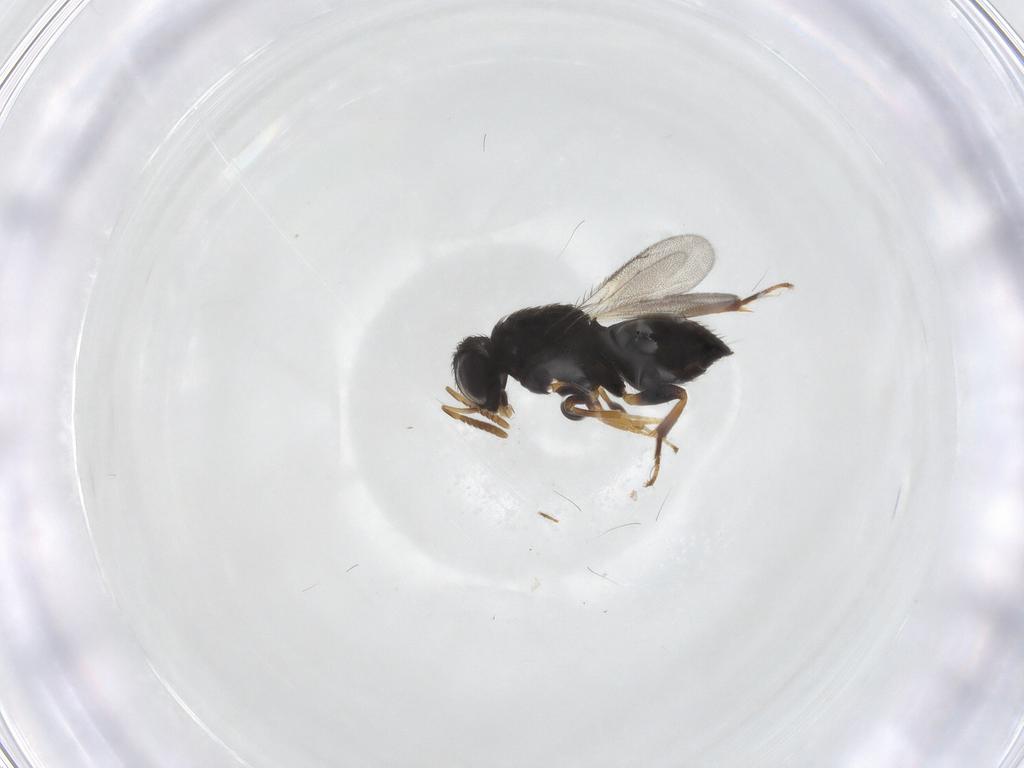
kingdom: Animalia
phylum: Arthropoda
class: Insecta
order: Hymenoptera
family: Pteromalidae
